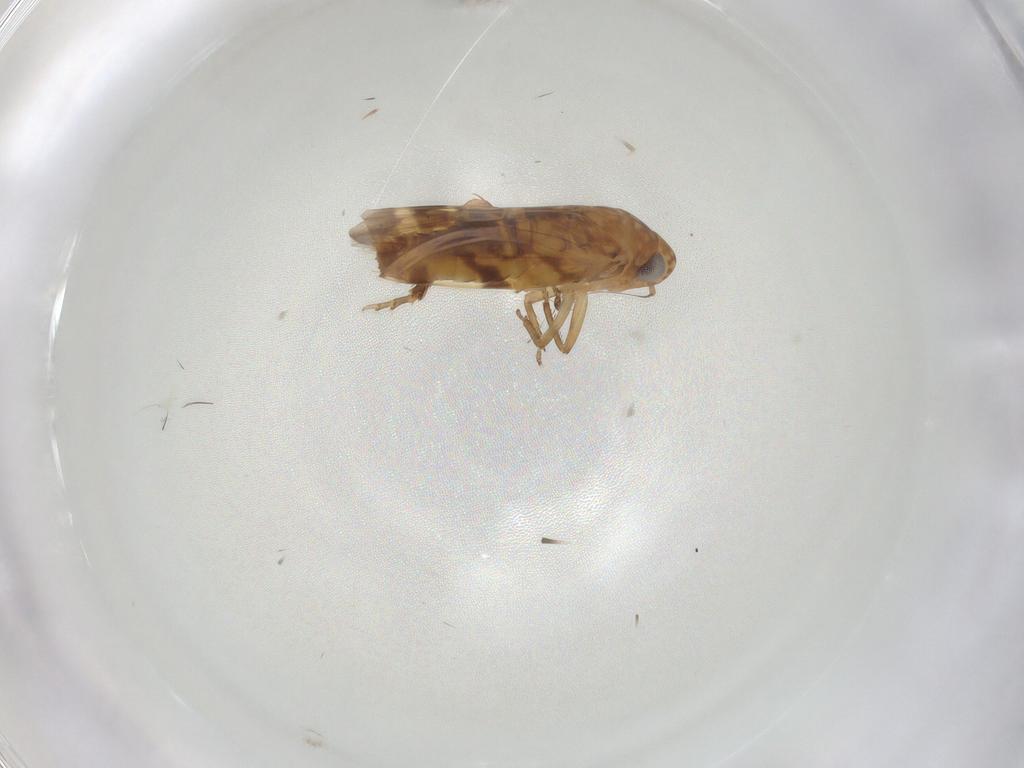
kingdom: Animalia
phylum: Arthropoda
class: Insecta
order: Hemiptera
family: Cicadellidae
